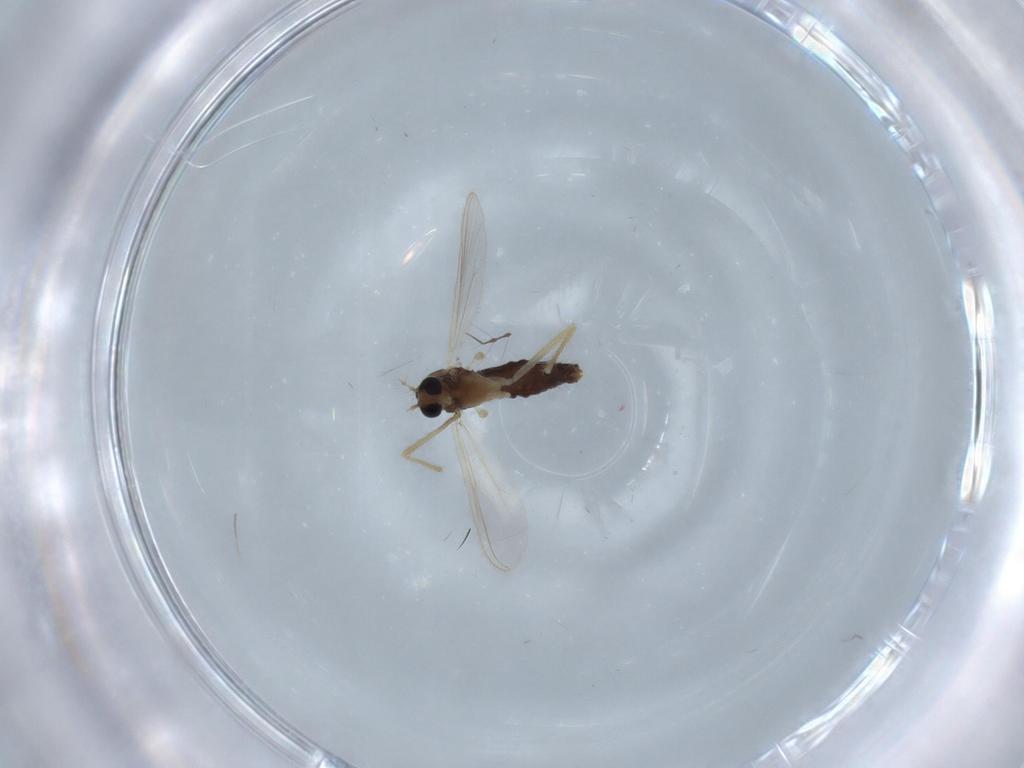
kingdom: Animalia
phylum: Arthropoda
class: Insecta
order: Diptera
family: Chironomidae
